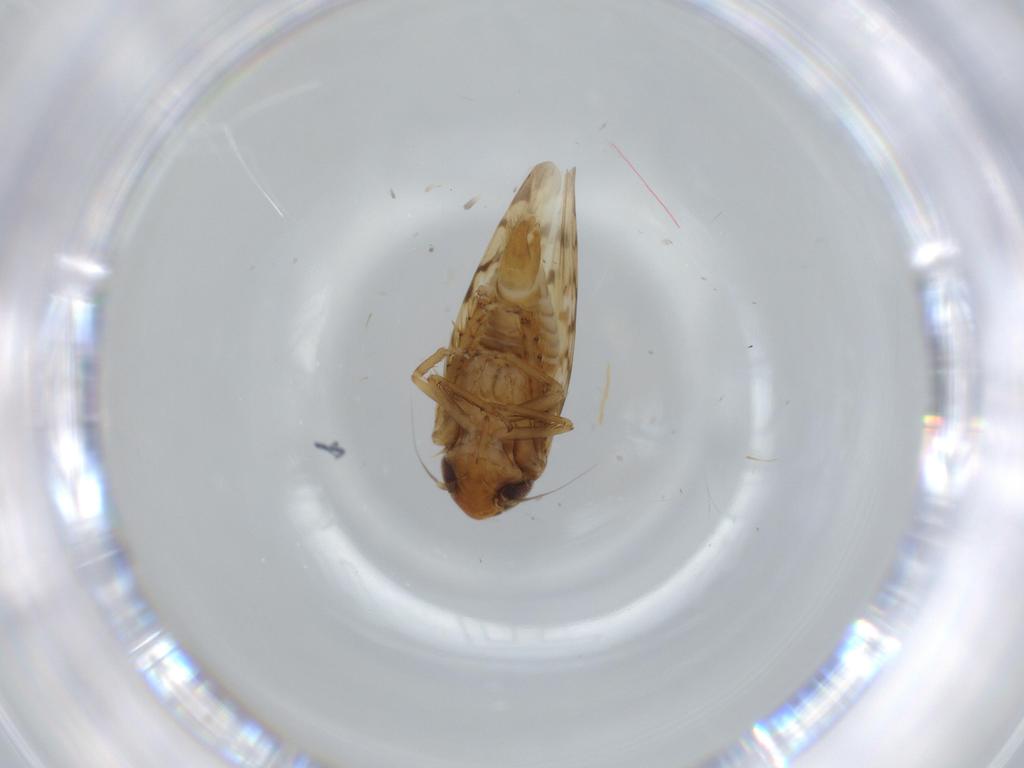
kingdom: Animalia
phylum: Arthropoda
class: Insecta
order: Hemiptera
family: Cicadellidae
